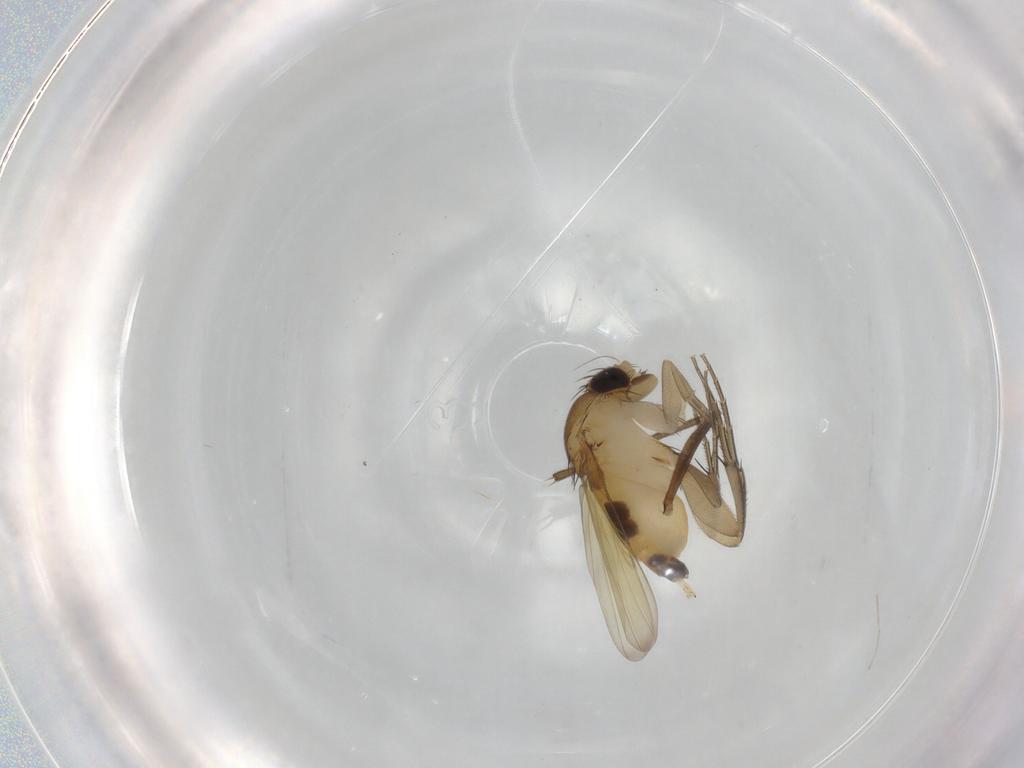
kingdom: Animalia
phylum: Arthropoda
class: Insecta
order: Diptera
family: Phoridae
